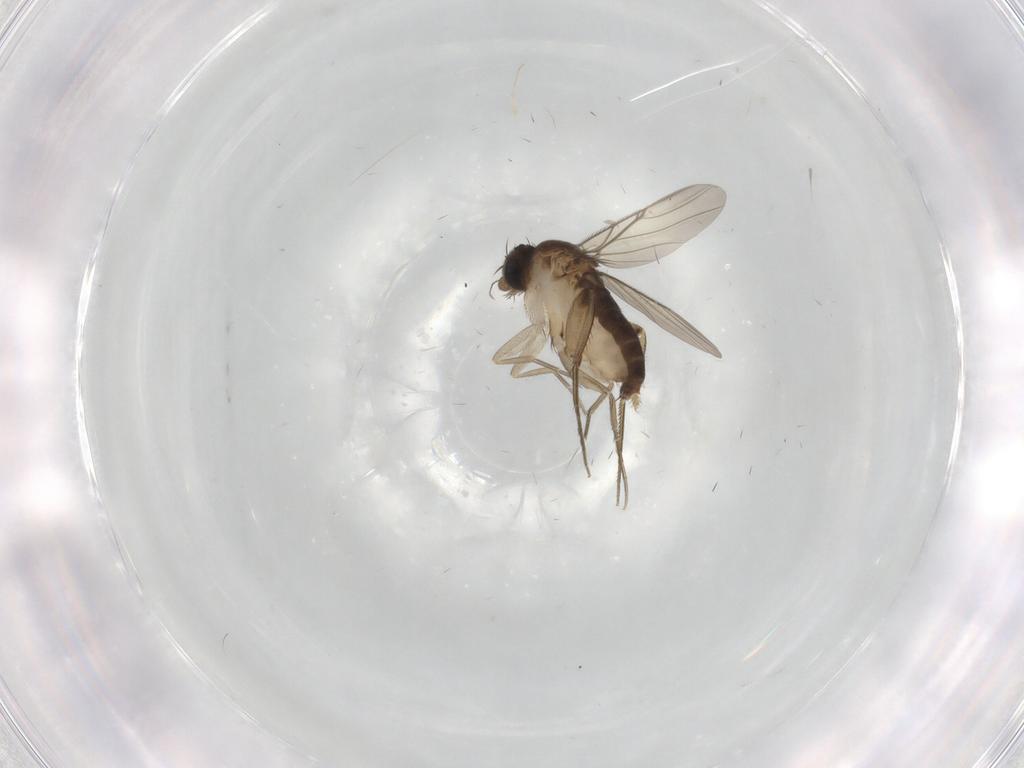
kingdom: Animalia
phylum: Arthropoda
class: Insecta
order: Diptera
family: Phoridae
